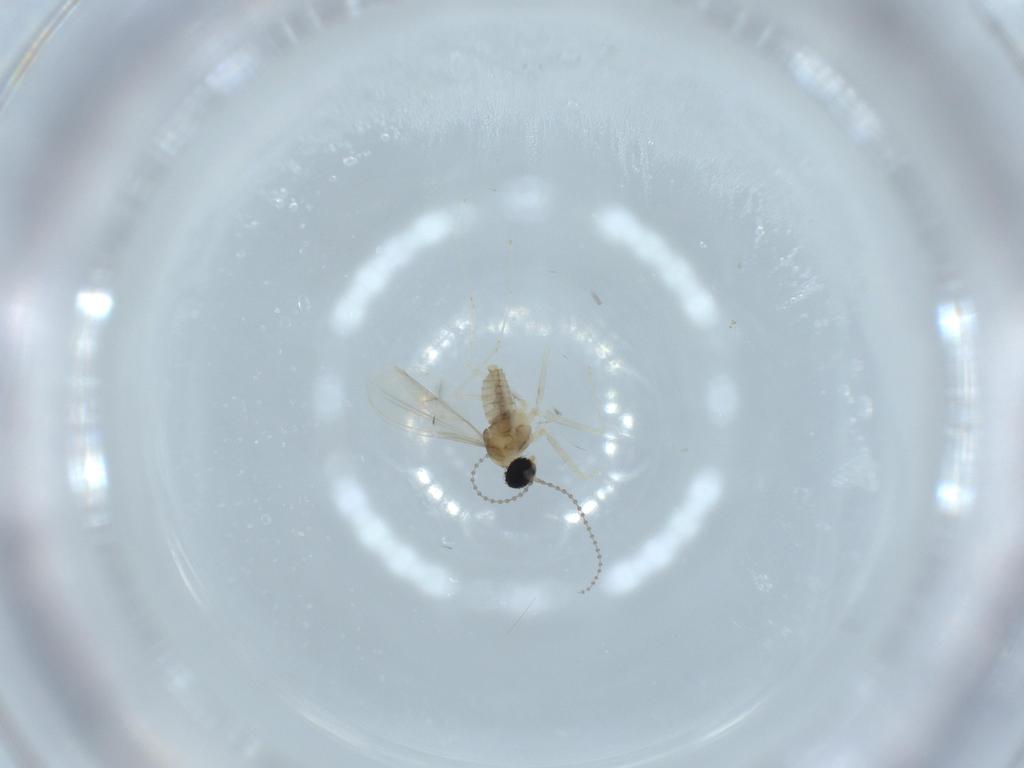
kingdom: Animalia
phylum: Arthropoda
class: Insecta
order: Diptera
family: Cecidomyiidae
